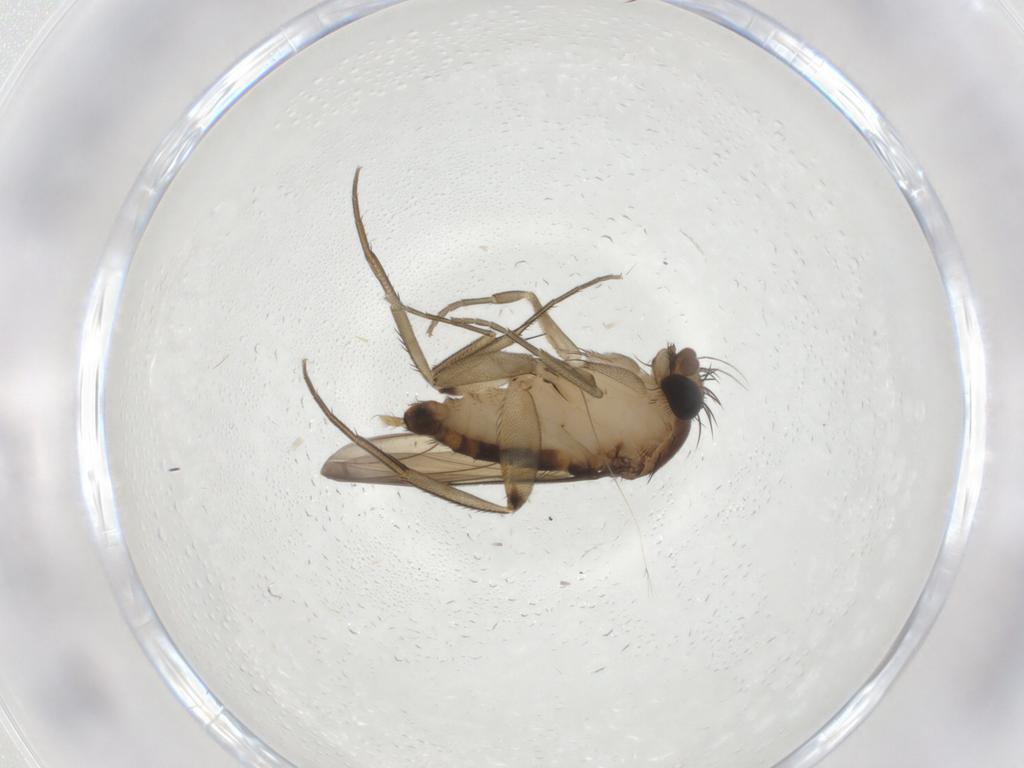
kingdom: Animalia
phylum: Arthropoda
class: Insecta
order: Diptera
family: Phoridae
